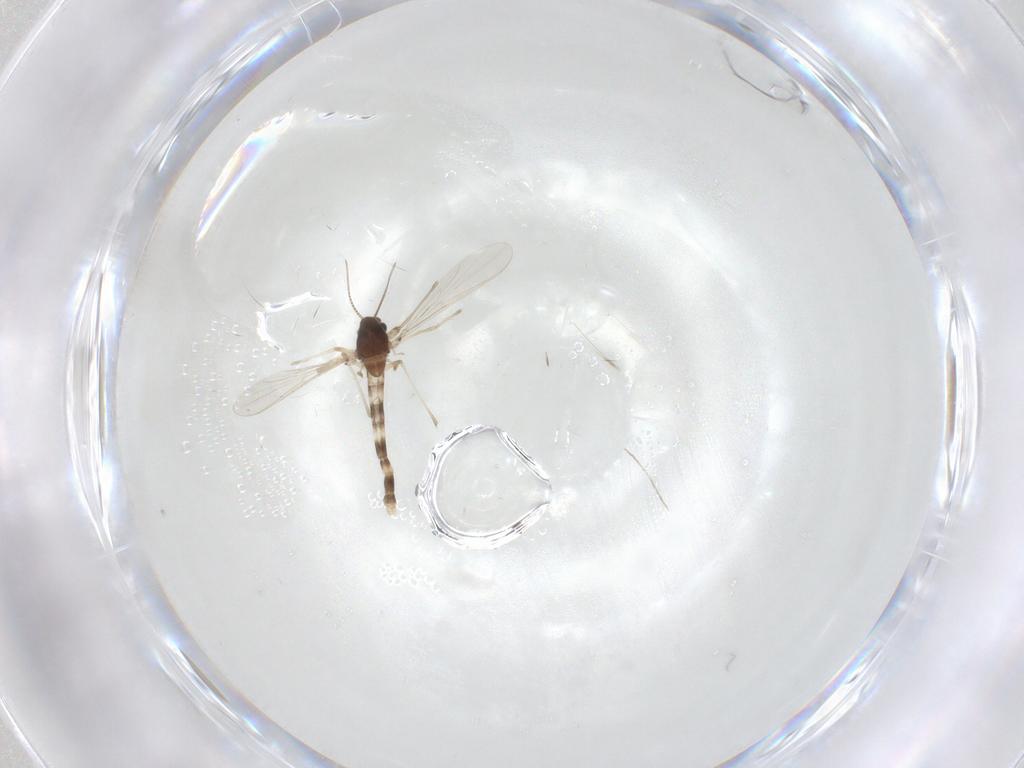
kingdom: Animalia
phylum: Arthropoda
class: Insecta
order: Diptera
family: Chironomidae
